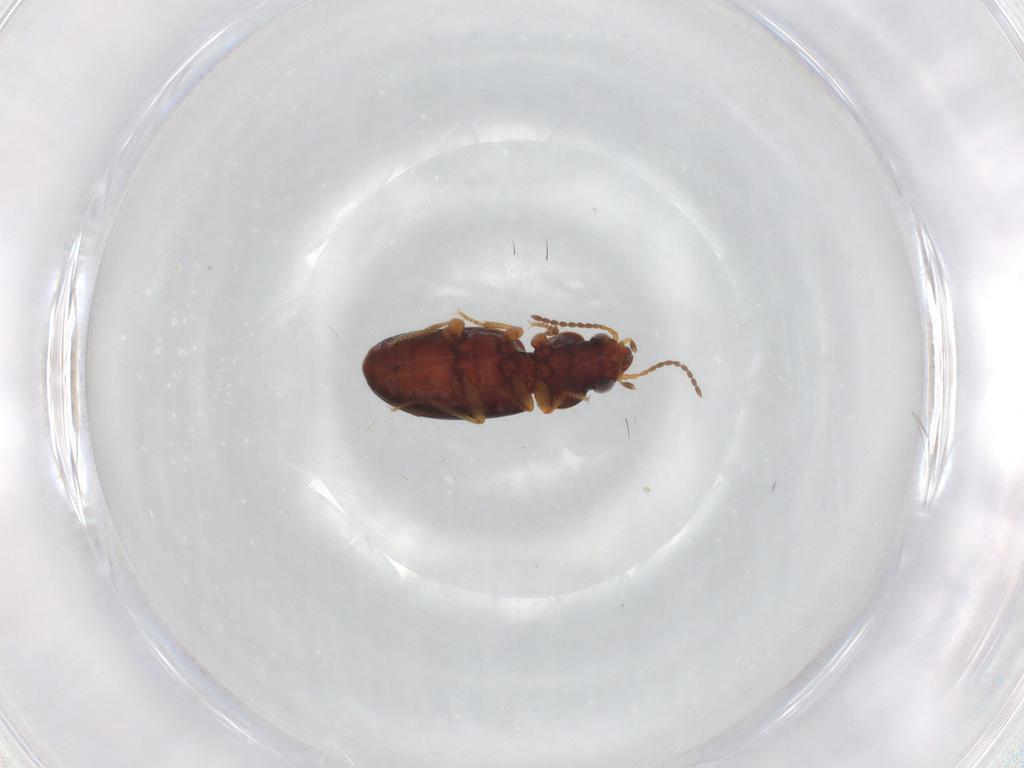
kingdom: Animalia
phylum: Arthropoda
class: Insecta
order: Coleoptera
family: Carabidae
